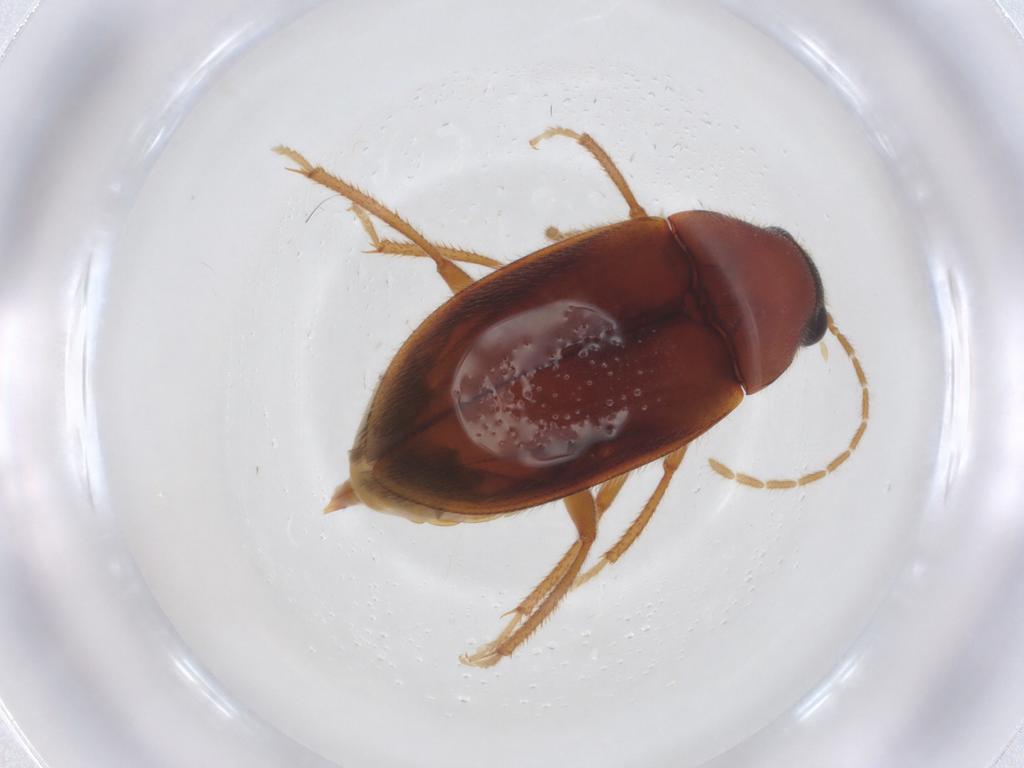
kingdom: Animalia
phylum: Arthropoda
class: Insecta
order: Coleoptera
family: Ptilodactylidae
